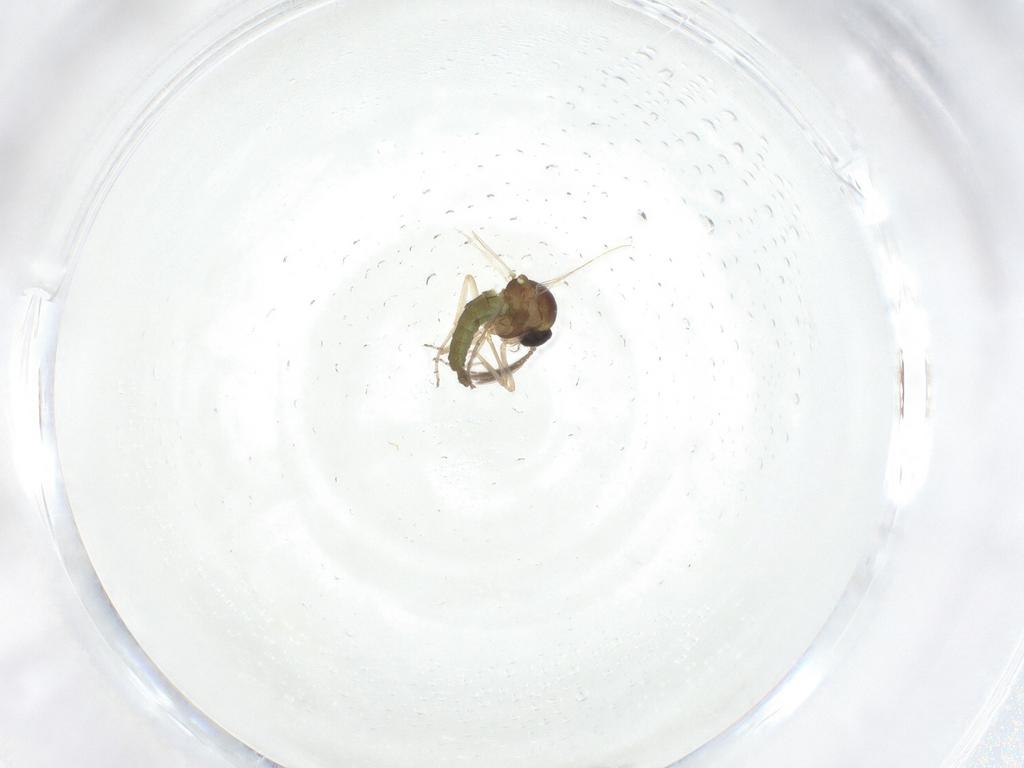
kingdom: Animalia
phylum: Arthropoda
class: Insecta
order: Diptera
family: Ceratopogonidae
